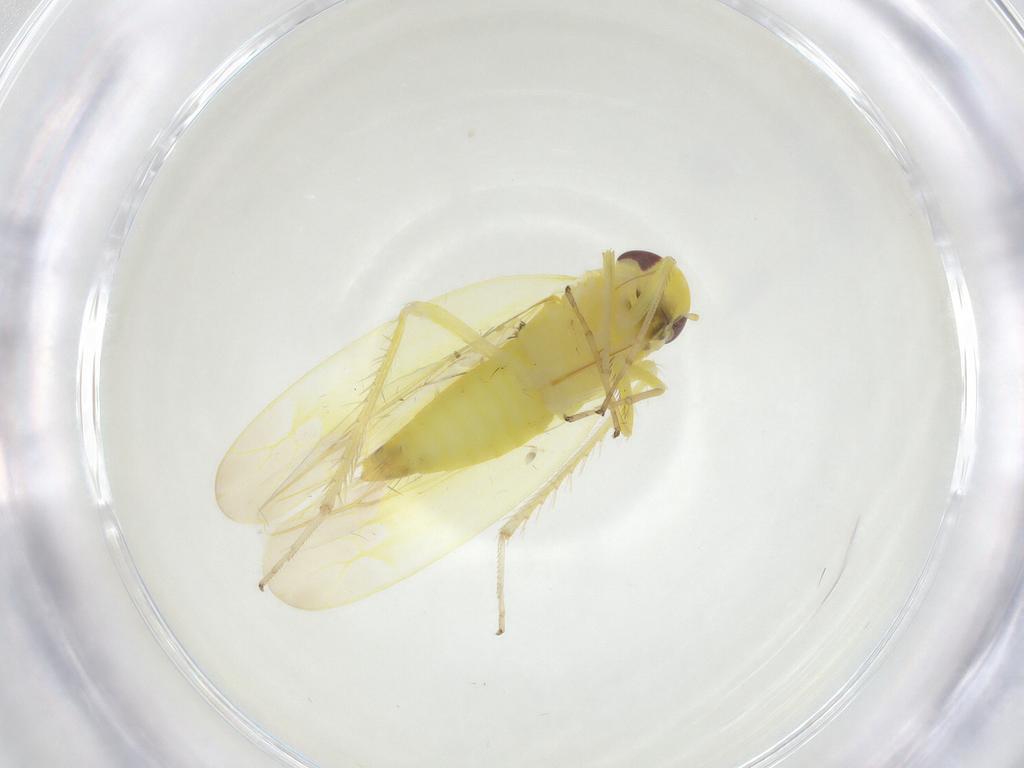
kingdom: Animalia
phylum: Arthropoda
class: Insecta
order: Hemiptera
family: Cicadellidae
